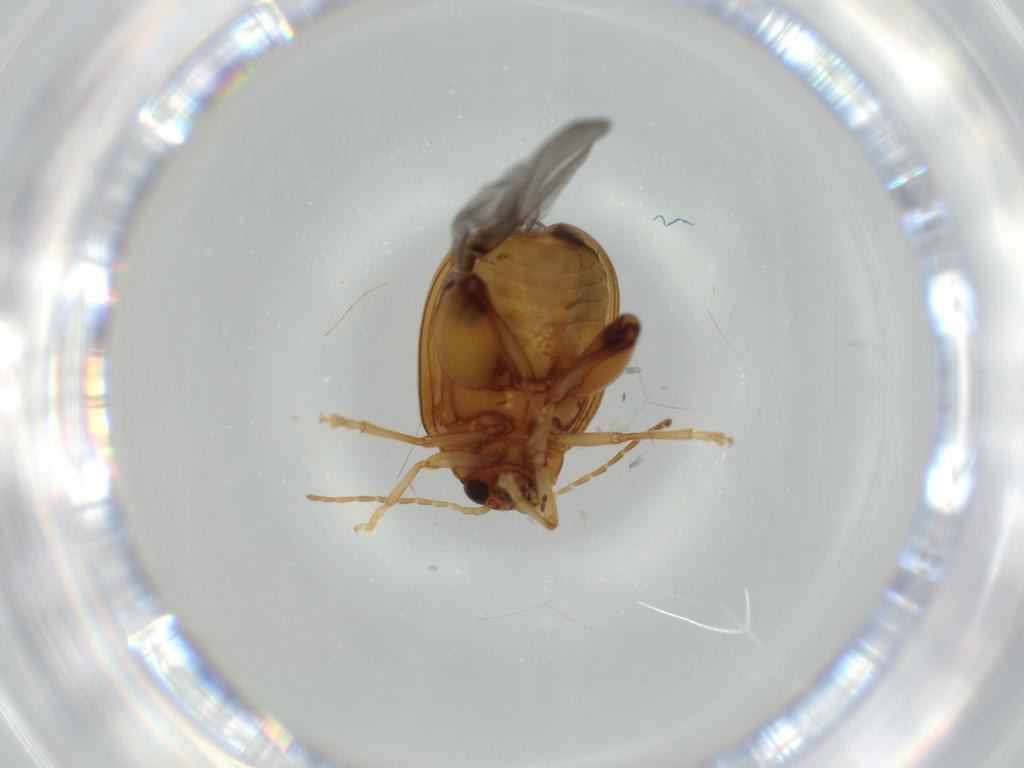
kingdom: Animalia
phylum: Arthropoda
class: Insecta
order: Coleoptera
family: Chrysomelidae
